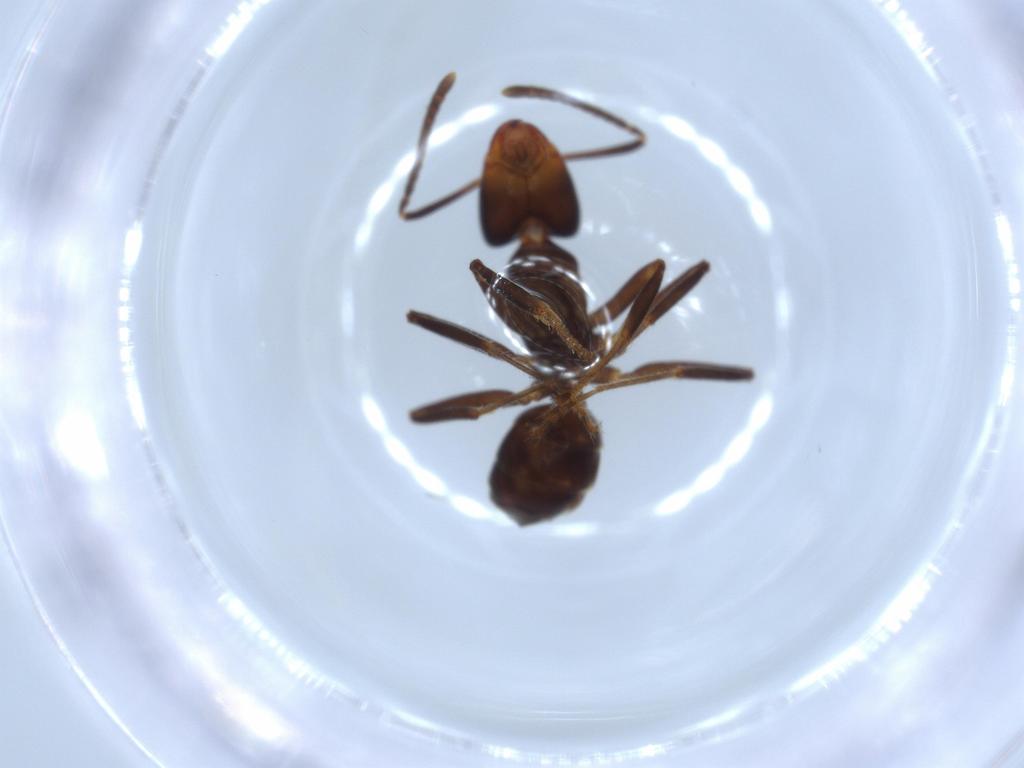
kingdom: Animalia
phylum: Arthropoda
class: Insecta
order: Hymenoptera
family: Formicidae
